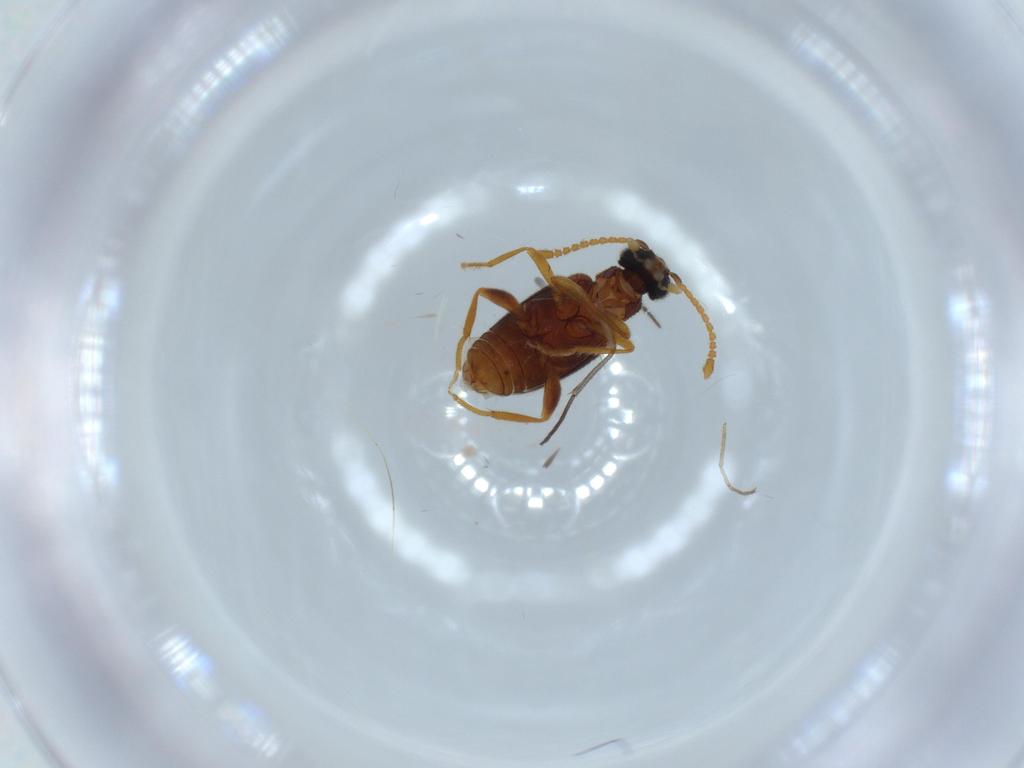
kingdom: Animalia
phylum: Arthropoda
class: Insecta
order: Coleoptera
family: Aderidae
